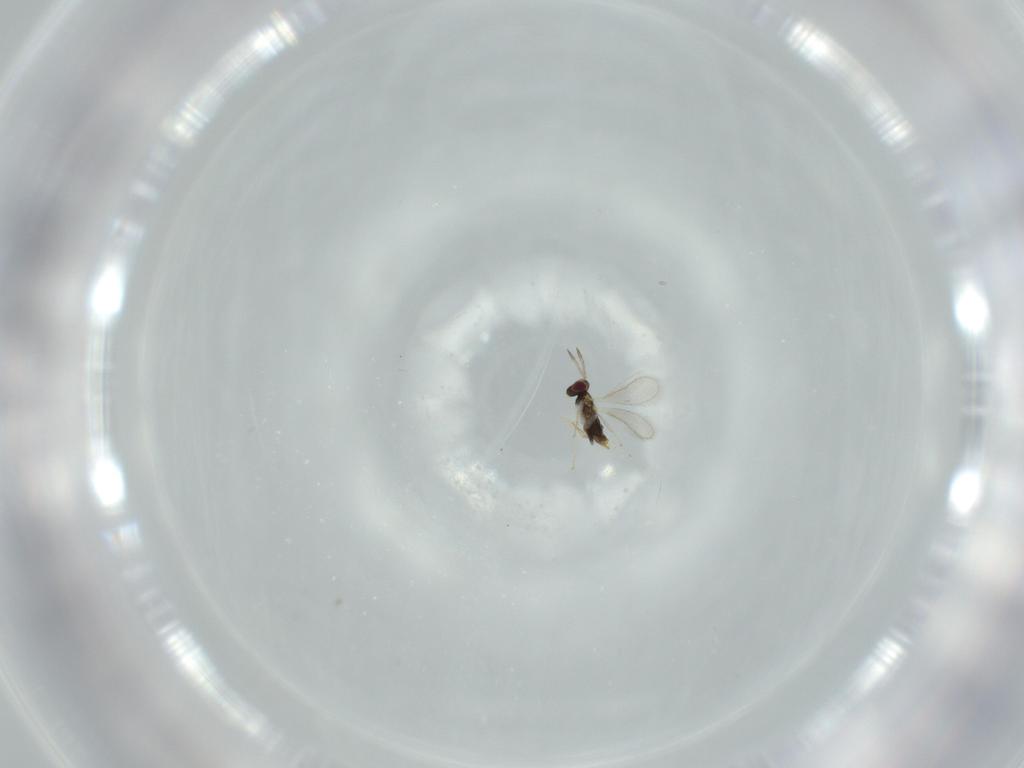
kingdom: Animalia
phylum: Arthropoda
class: Insecta
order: Hymenoptera
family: Aphelinidae
